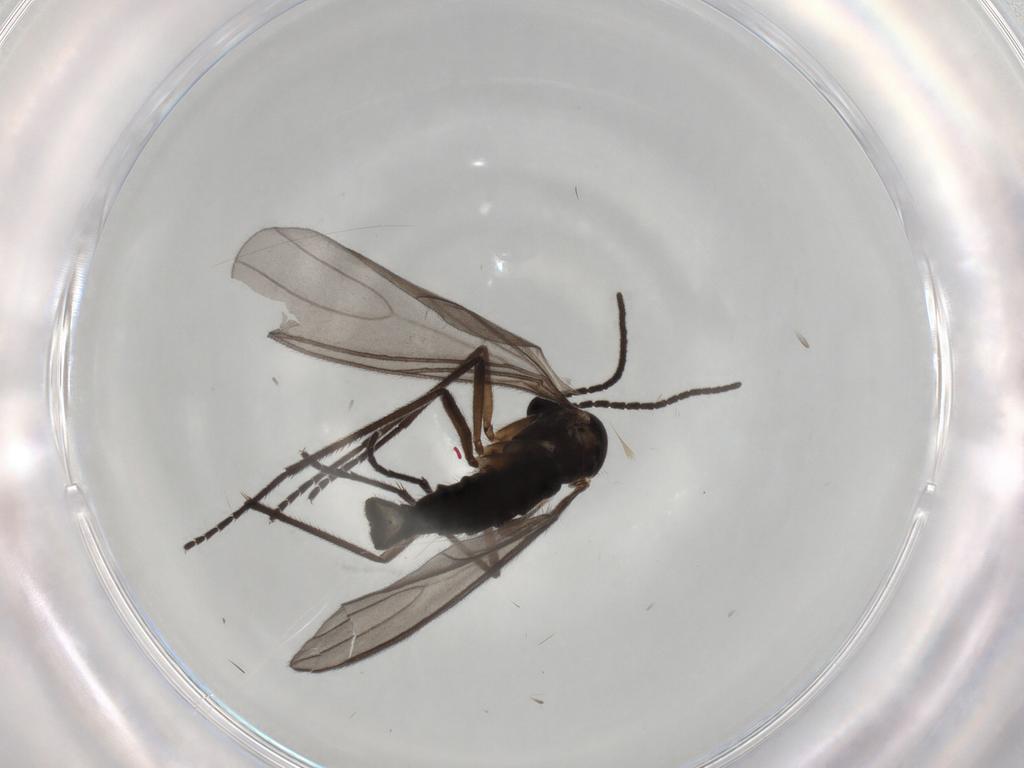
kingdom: Animalia
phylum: Arthropoda
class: Insecta
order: Diptera
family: Sciaridae
